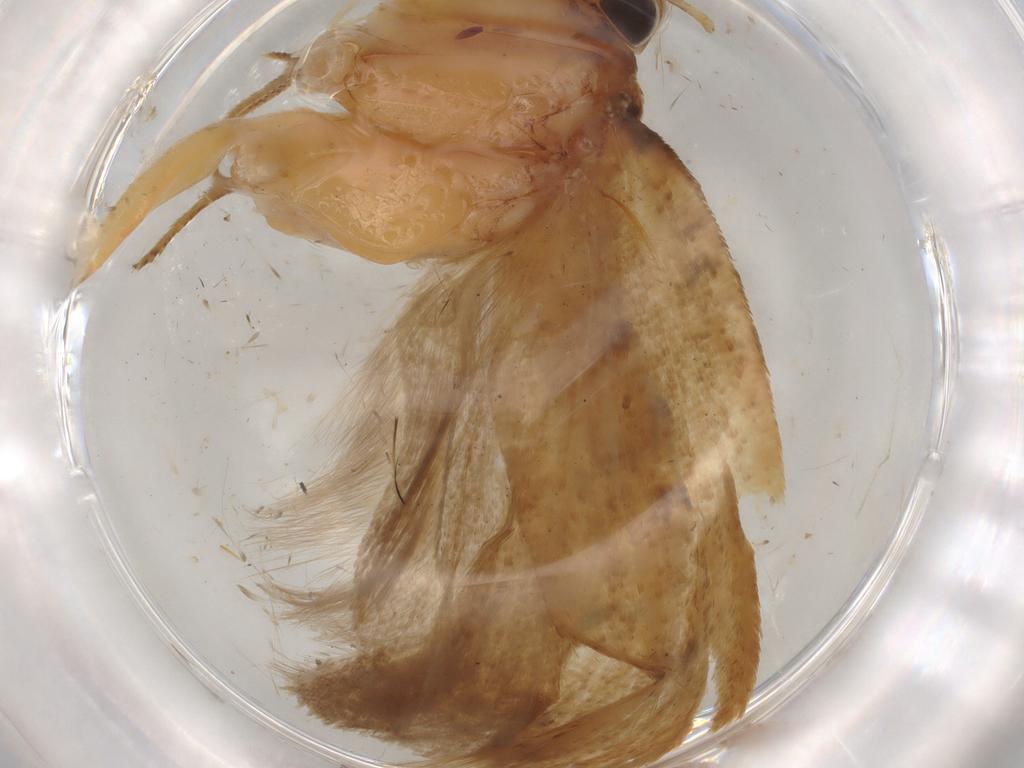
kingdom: Animalia
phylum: Arthropoda
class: Insecta
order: Lepidoptera
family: Gelechiidae
